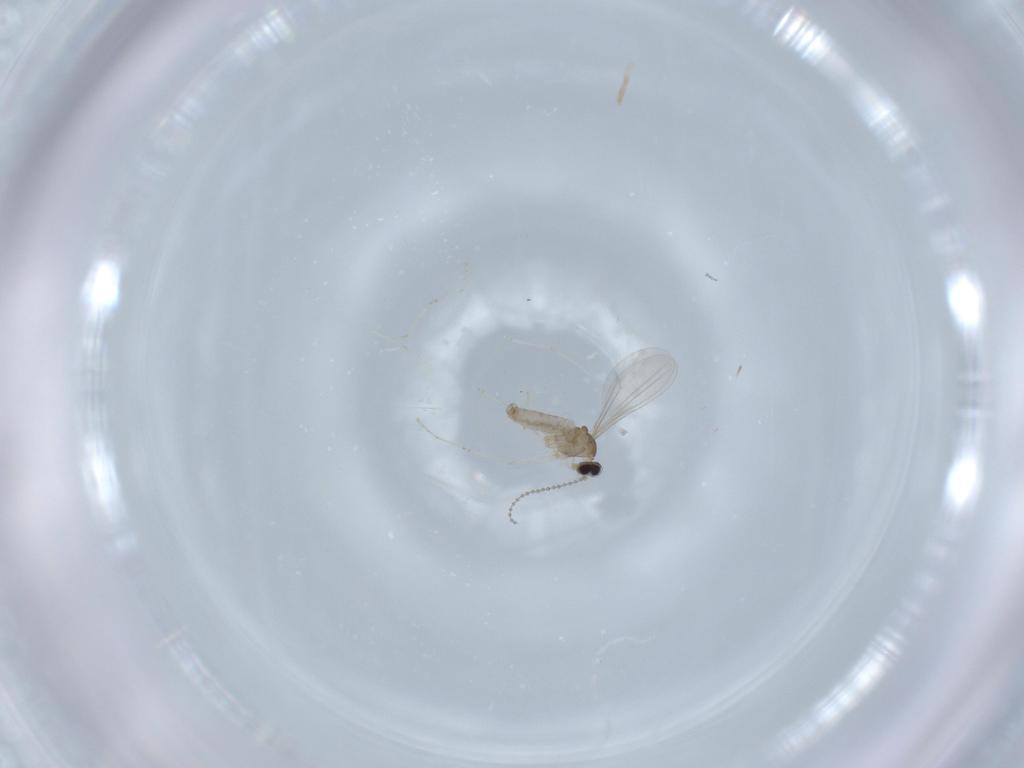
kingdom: Animalia
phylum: Arthropoda
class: Insecta
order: Diptera
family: Cecidomyiidae
